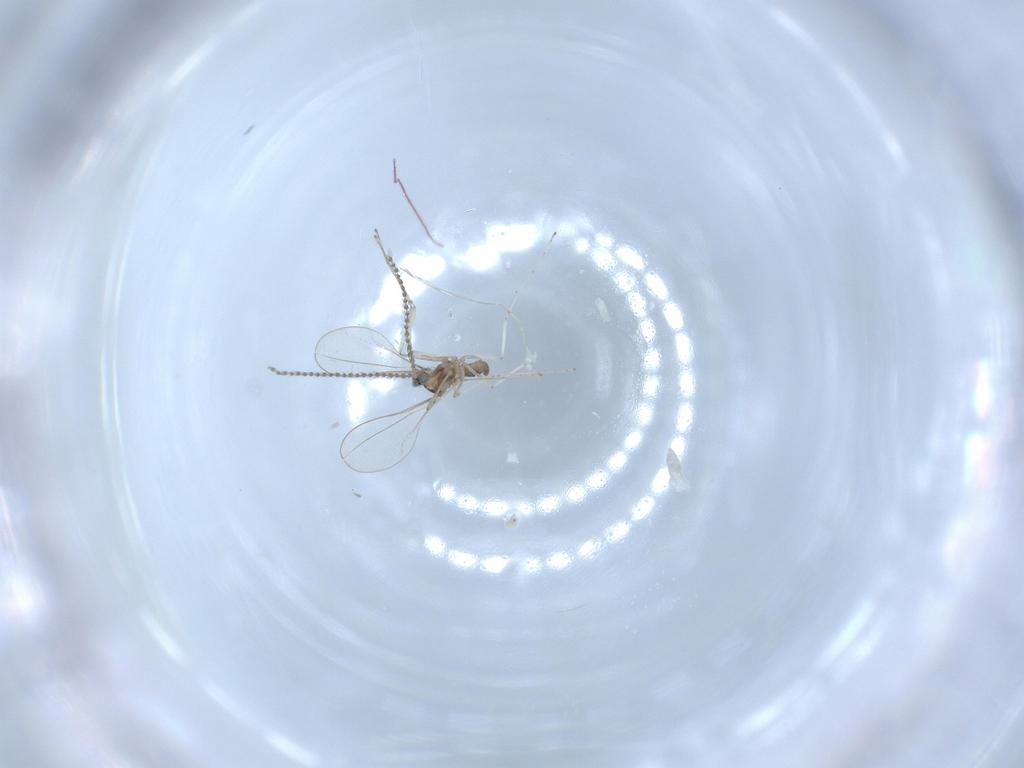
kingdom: Animalia
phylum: Arthropoda
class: Insecta
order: Diptera
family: Cecidomyiidae
